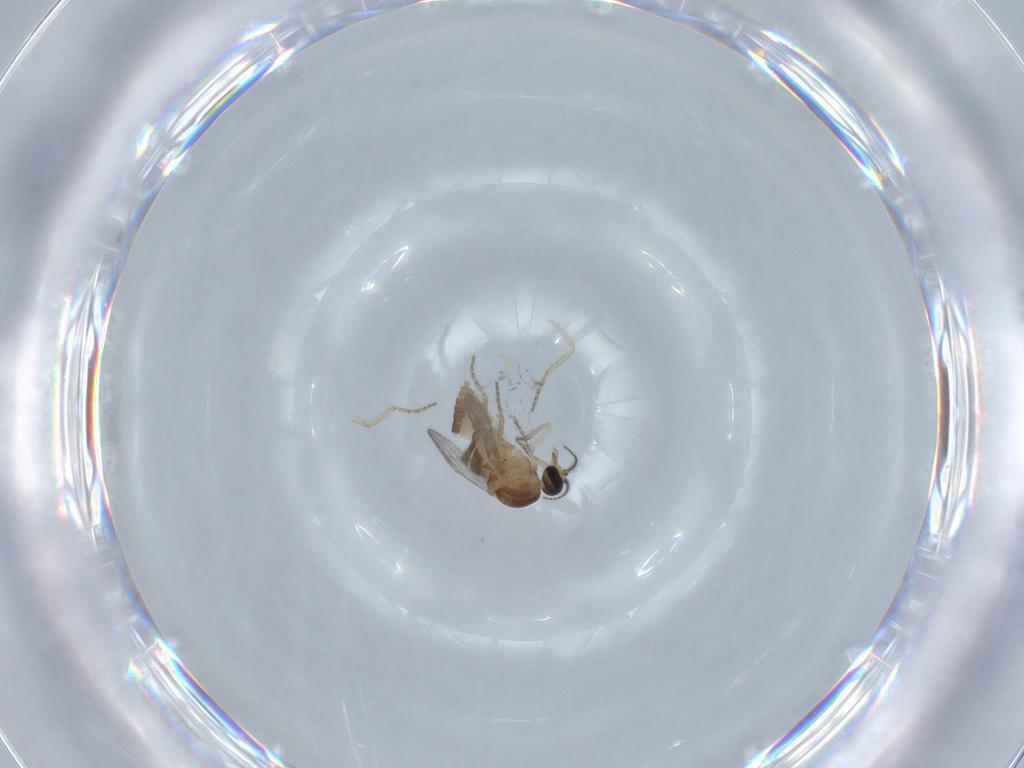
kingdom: Animalia
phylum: Arthropoda
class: Insecta
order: Diptera
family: Ceratopogonidae
